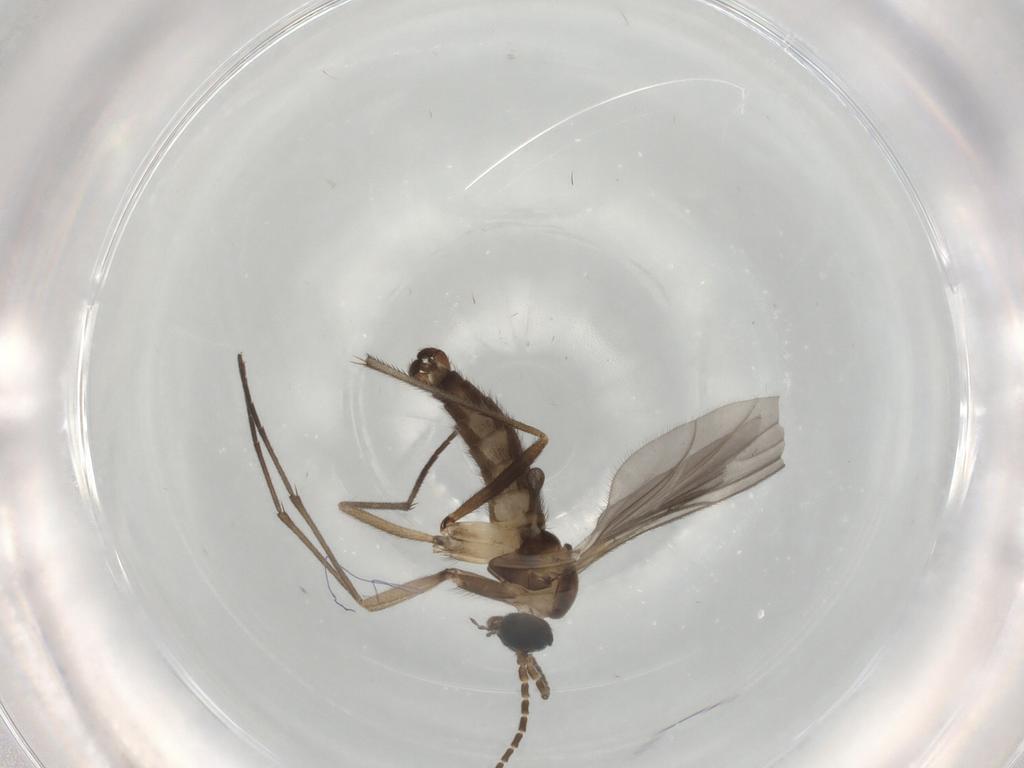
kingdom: Animalia
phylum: Arthropoda
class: Insecta
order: Diptera
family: Sciaridae
